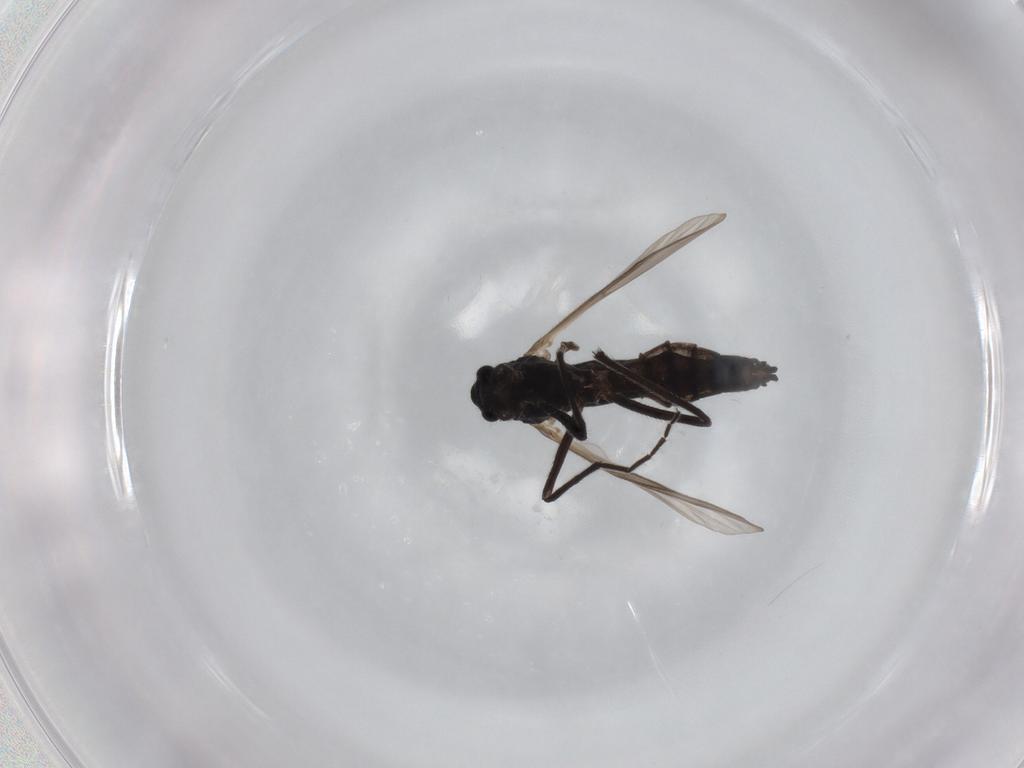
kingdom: Animalia
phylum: Arthropoda
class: Insecta
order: Diptera
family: Chironomidae
